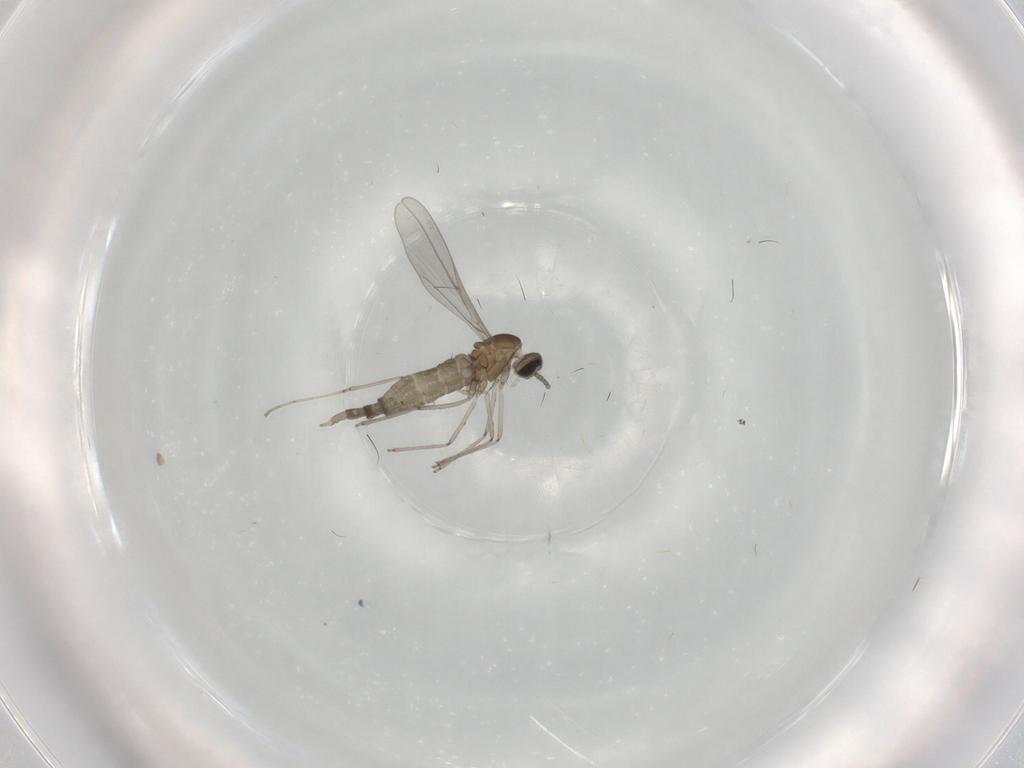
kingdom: Animalia
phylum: Arthropoda
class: Insecta
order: Diptera
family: Cecidomyiidae
